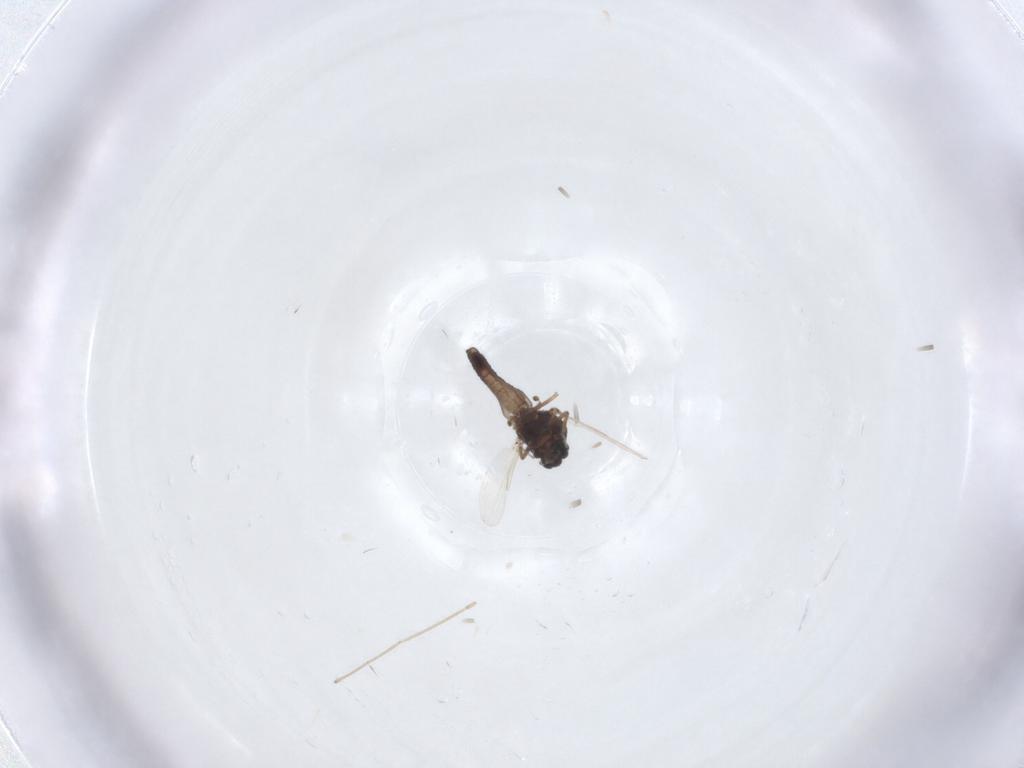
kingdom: Animalia
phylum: Arthropoda
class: Insecta
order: Diptera
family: Ceratopogonidae
